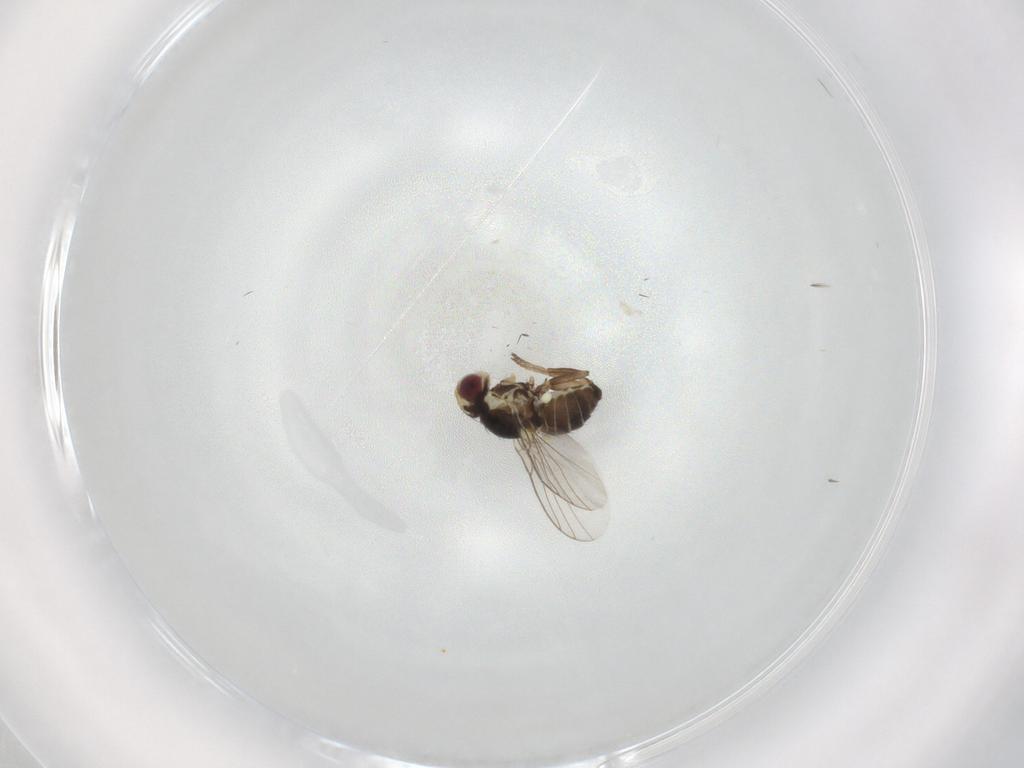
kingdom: Animalia
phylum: Arthropoda
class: Insecta
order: Diptera
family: Agromyzidae
